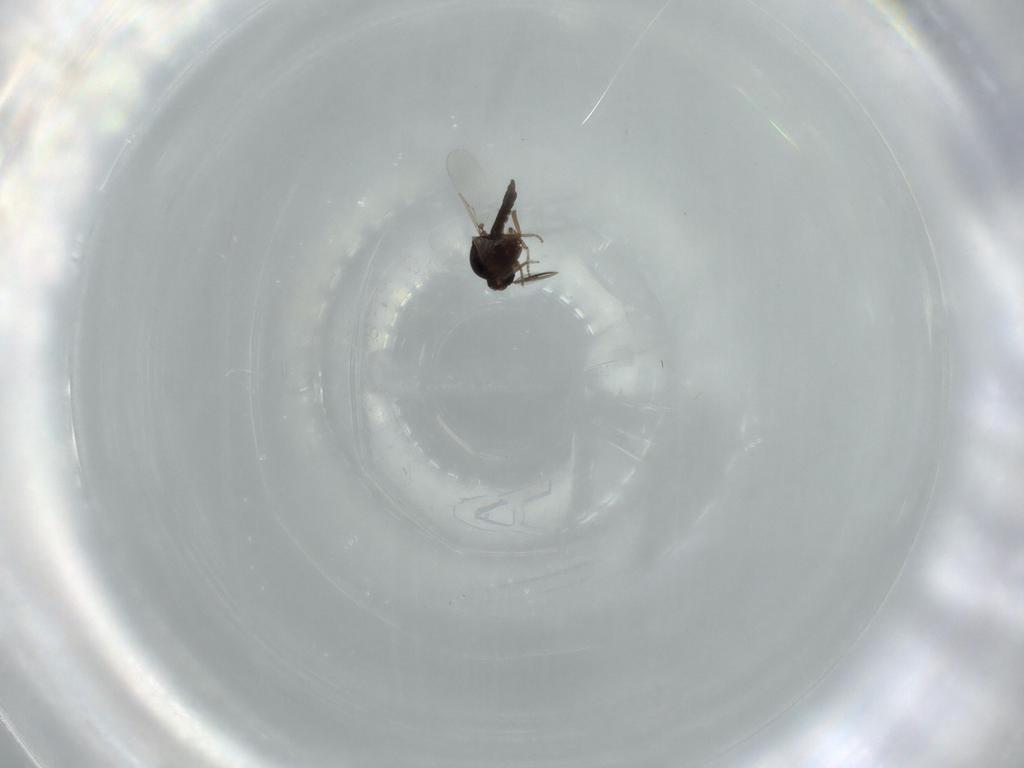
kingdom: Animalia
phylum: Arthropoda
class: Insecta
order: Diptera
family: Ceratopogonidae
